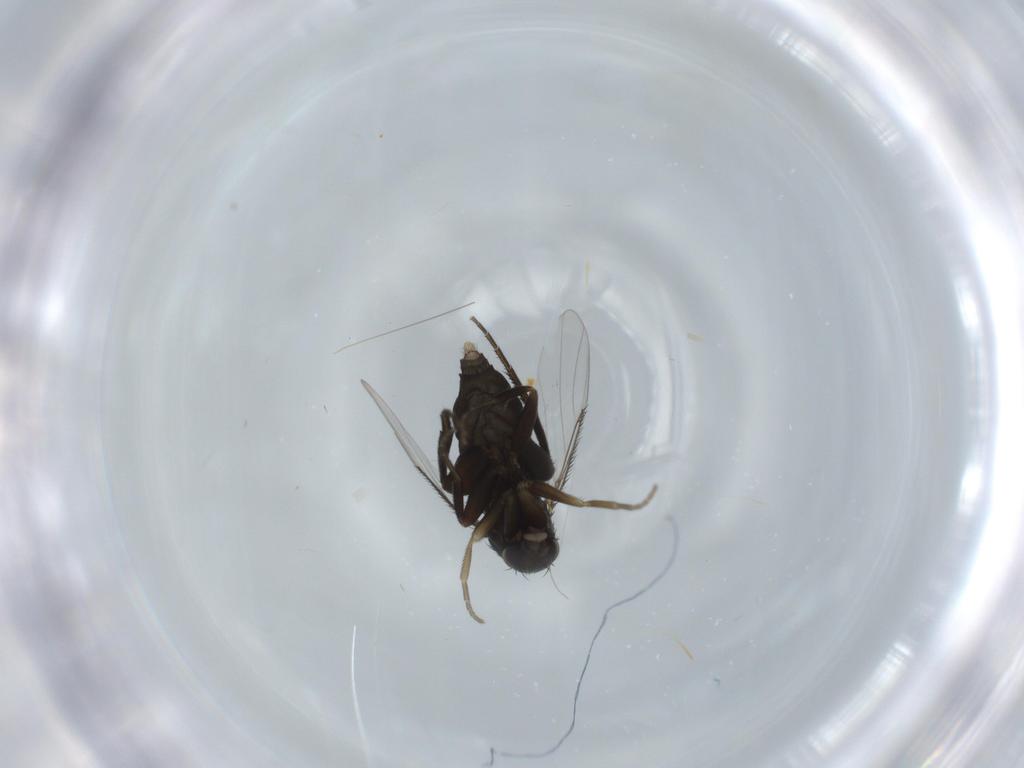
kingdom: Animalia
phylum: Arthropoda
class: Insecta
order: Diptera
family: Phoridae
